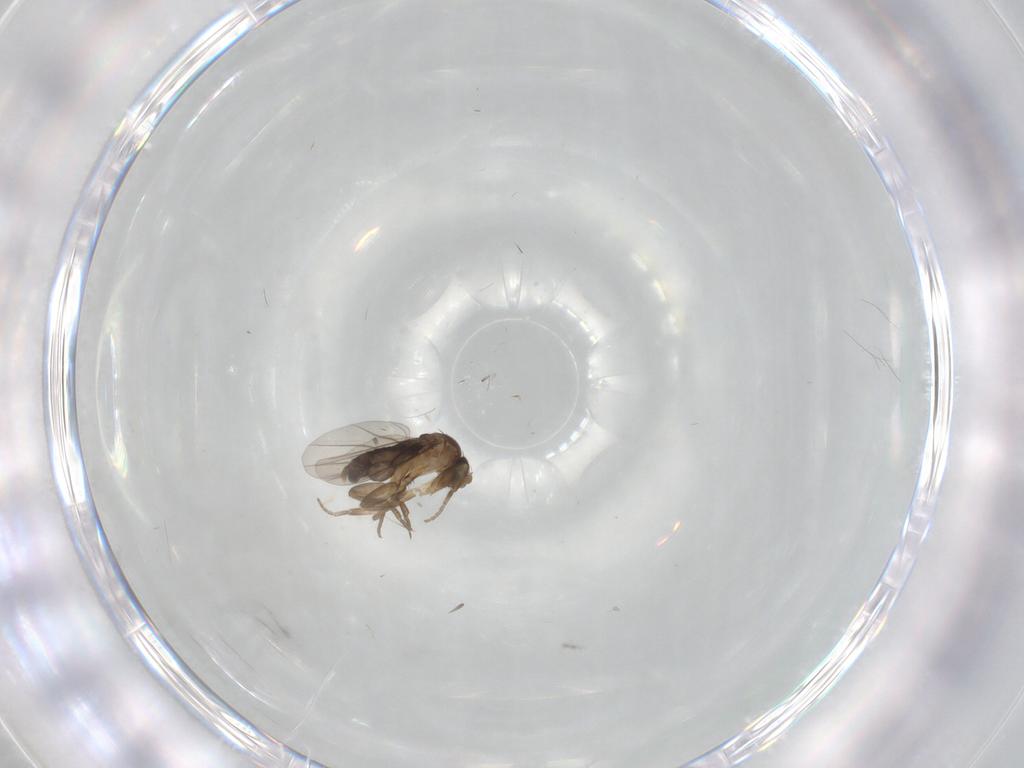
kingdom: Animalia
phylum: Arthropoda
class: Insecta
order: Diptera
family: Phoridae
